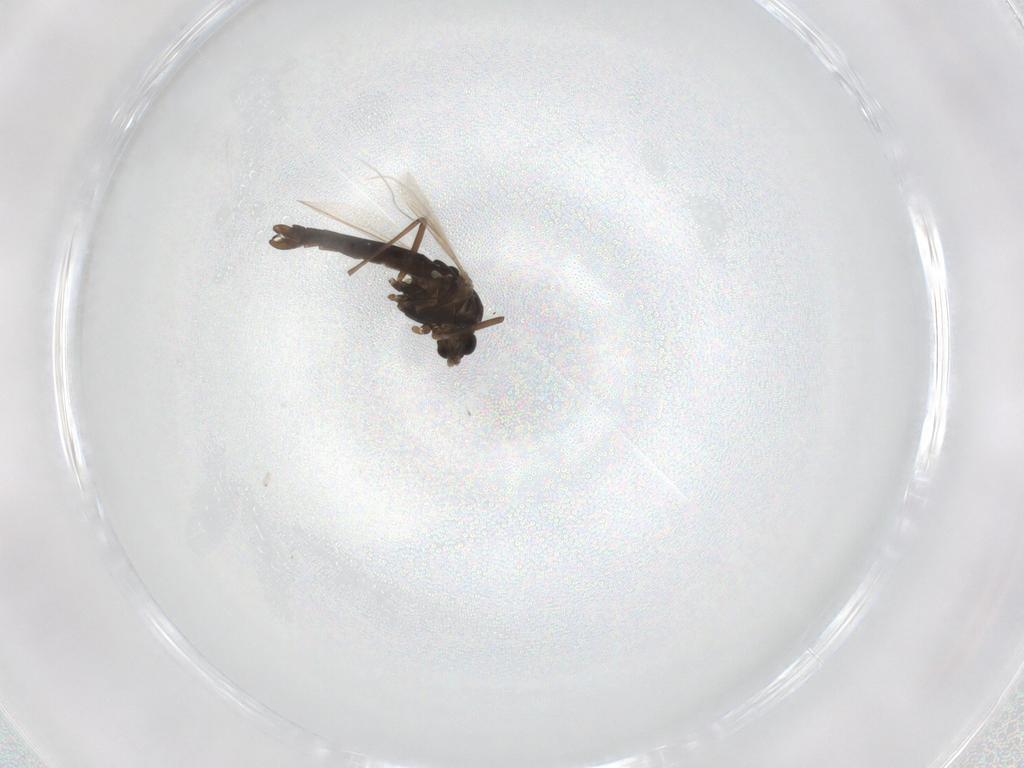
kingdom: Animalia
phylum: Arthropoda
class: Insecta
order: Diptera
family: Chironomidae
